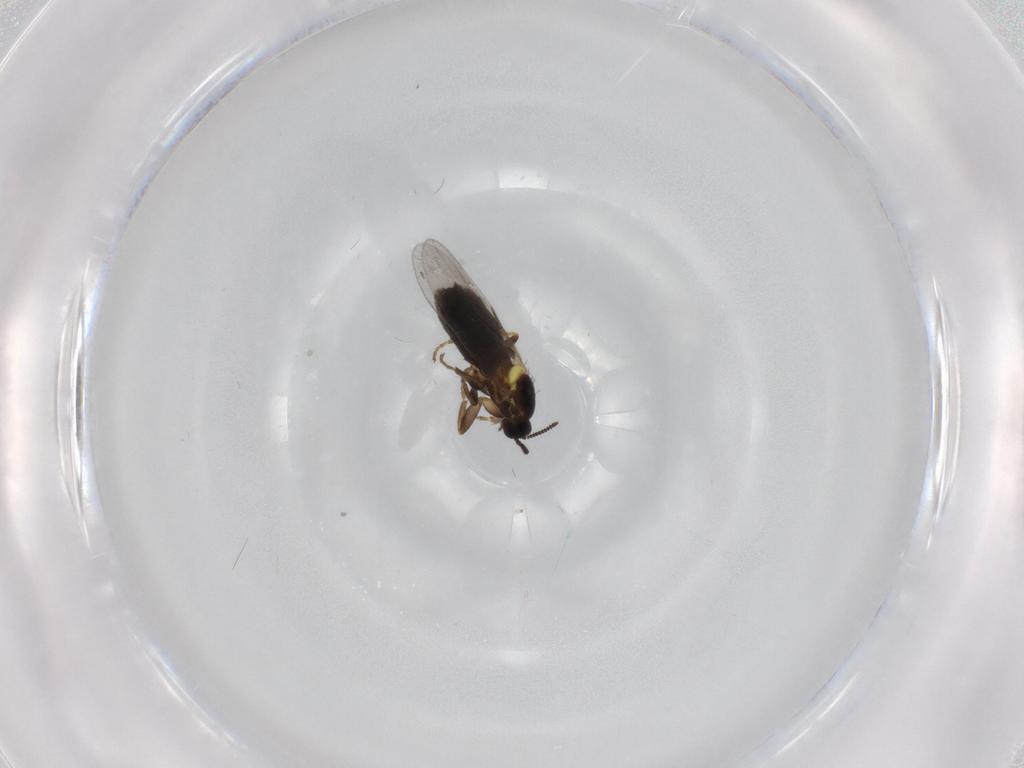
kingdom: Animalia
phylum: Arthropoda
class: Insecta
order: Diptera
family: Scatopsidae
